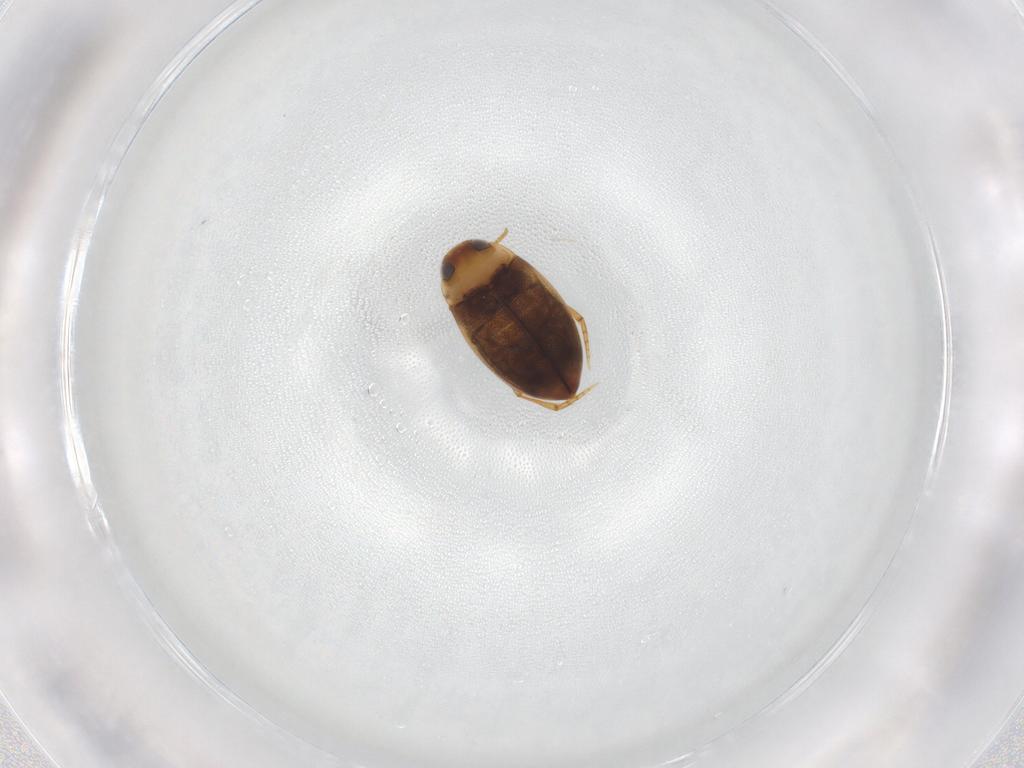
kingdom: Animalia
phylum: Arthropoda
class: Insecta
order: Coleoptera
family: Dytiscidae
